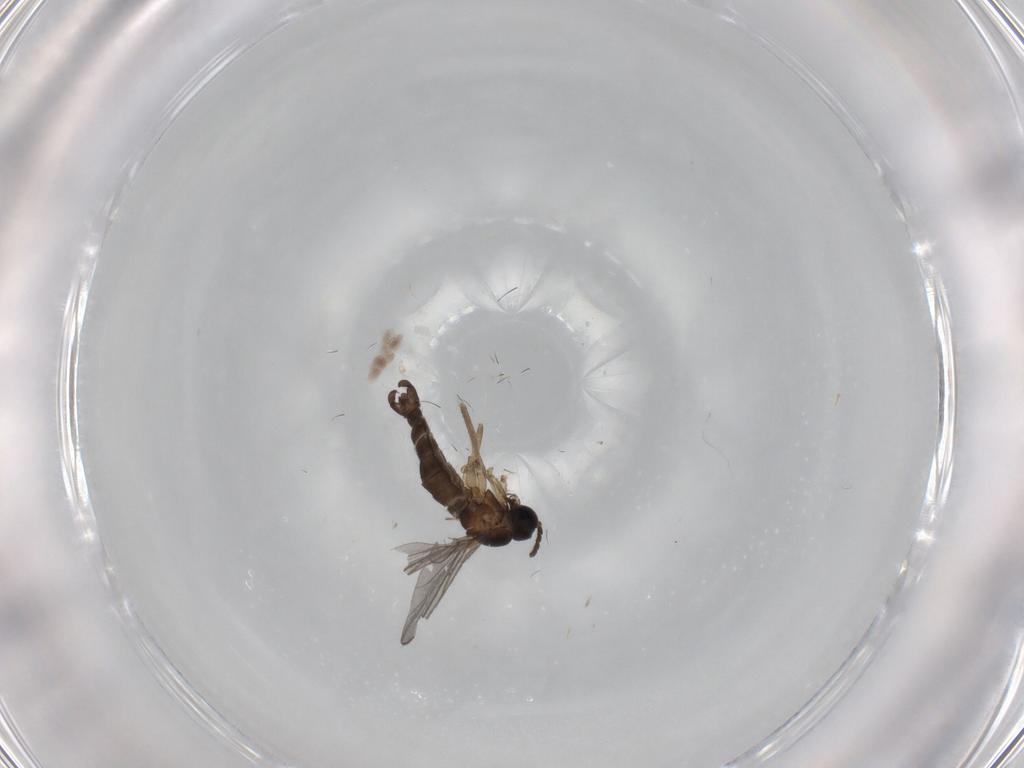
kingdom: Animalia
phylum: Arthropoda
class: Insecta
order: Diptera
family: Sciaridae
